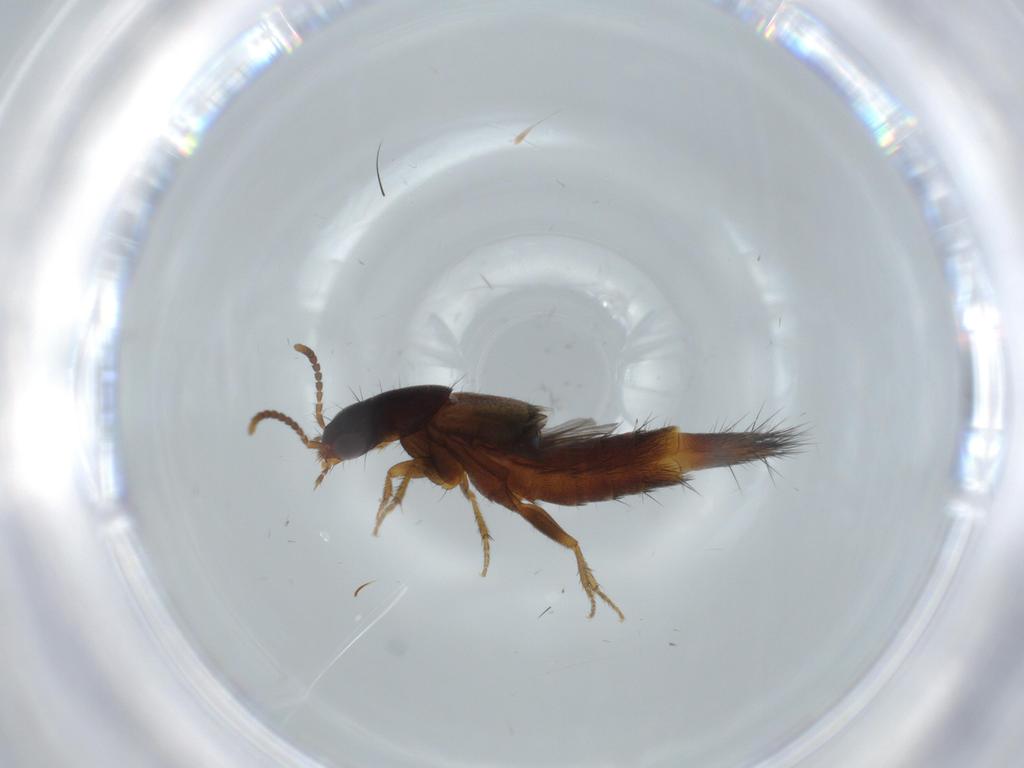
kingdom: Animalia
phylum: Arthropoda
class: Insecta
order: Coleoptera
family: Staphylinidae
